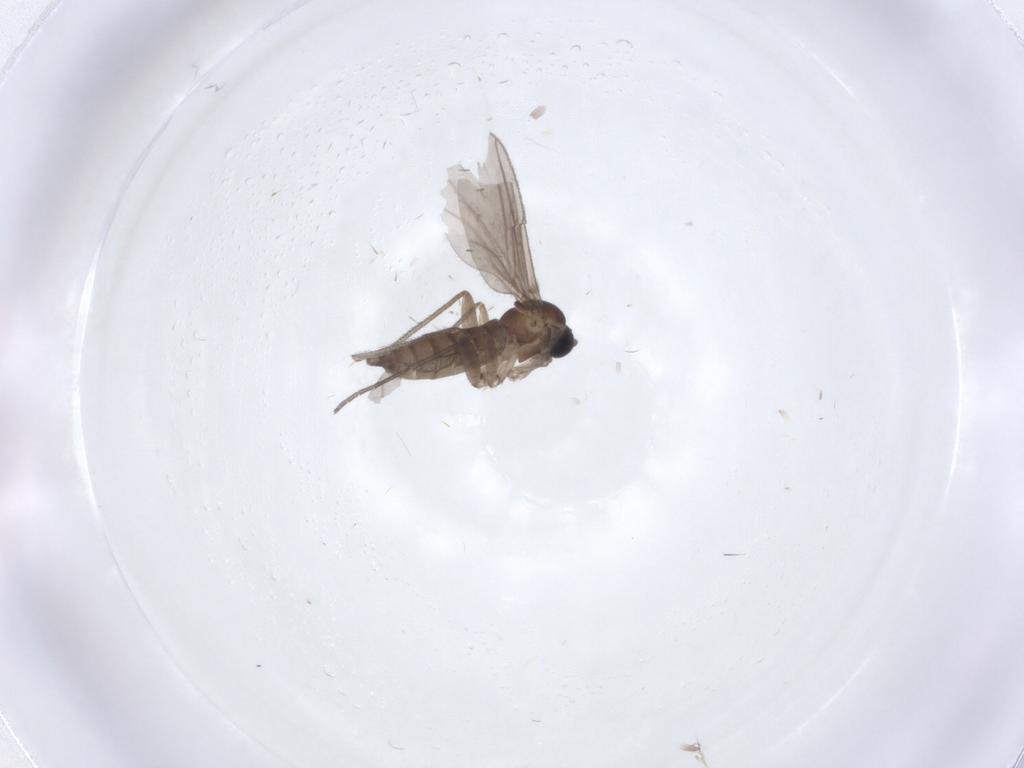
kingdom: Animalia
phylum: Arthropoda
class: Insecta
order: Diptera
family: Sciaridae
